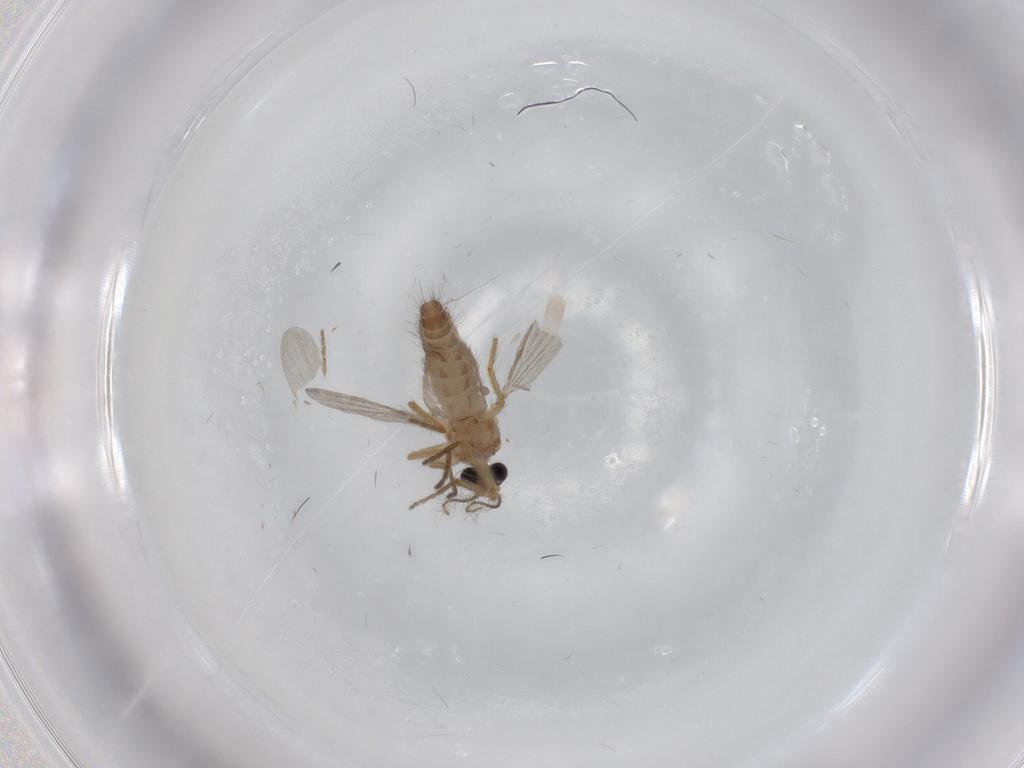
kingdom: Animalia
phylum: Arthropoda
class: Insecta
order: Diptera
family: Ceratopogonidae
